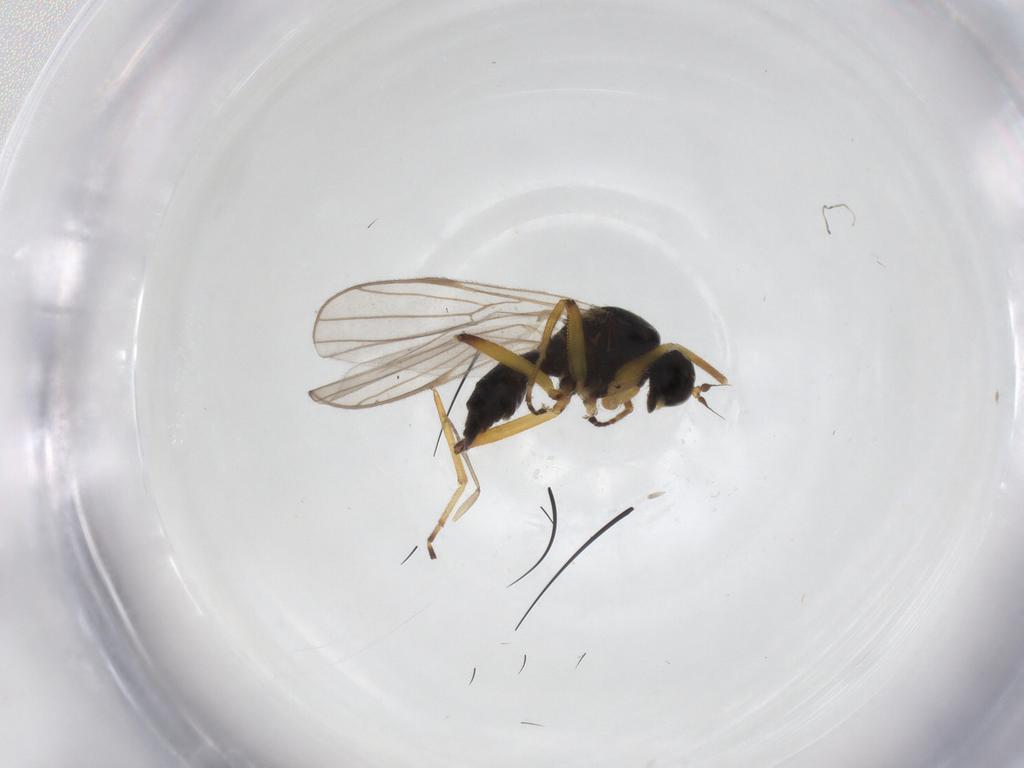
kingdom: Animalia
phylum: Arthropoda
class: Insecta
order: Diptera
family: Hybotidae
